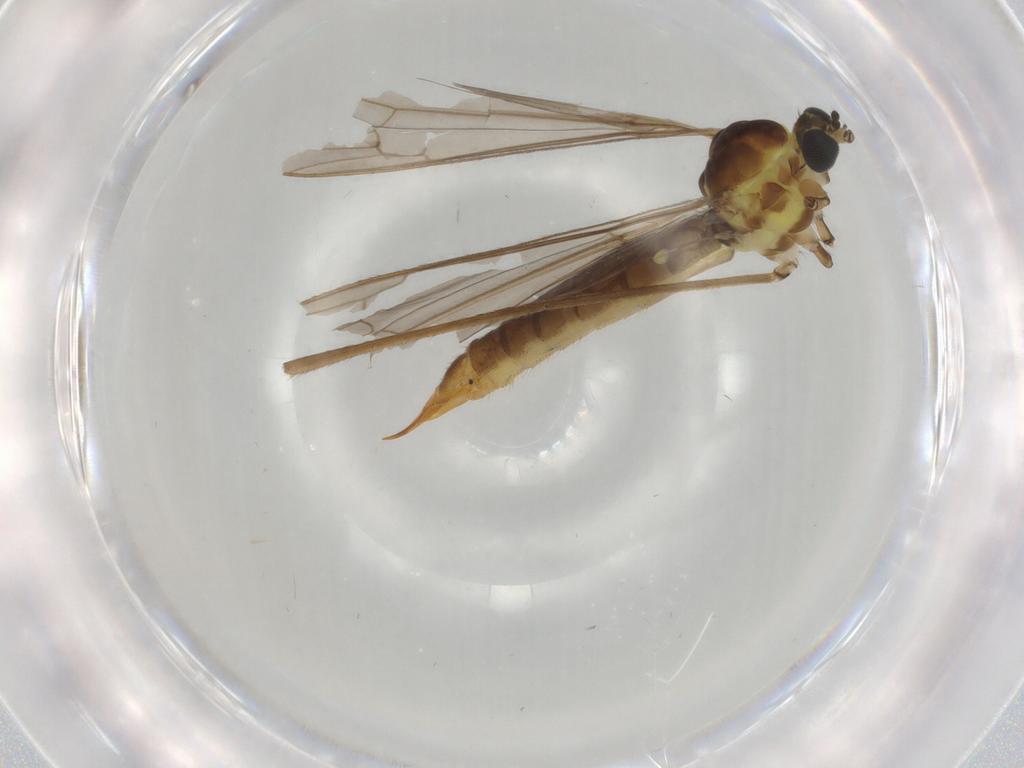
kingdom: Animalia
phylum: Arthropoda
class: Insecta
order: Diptera
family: Ceratopogonidae
